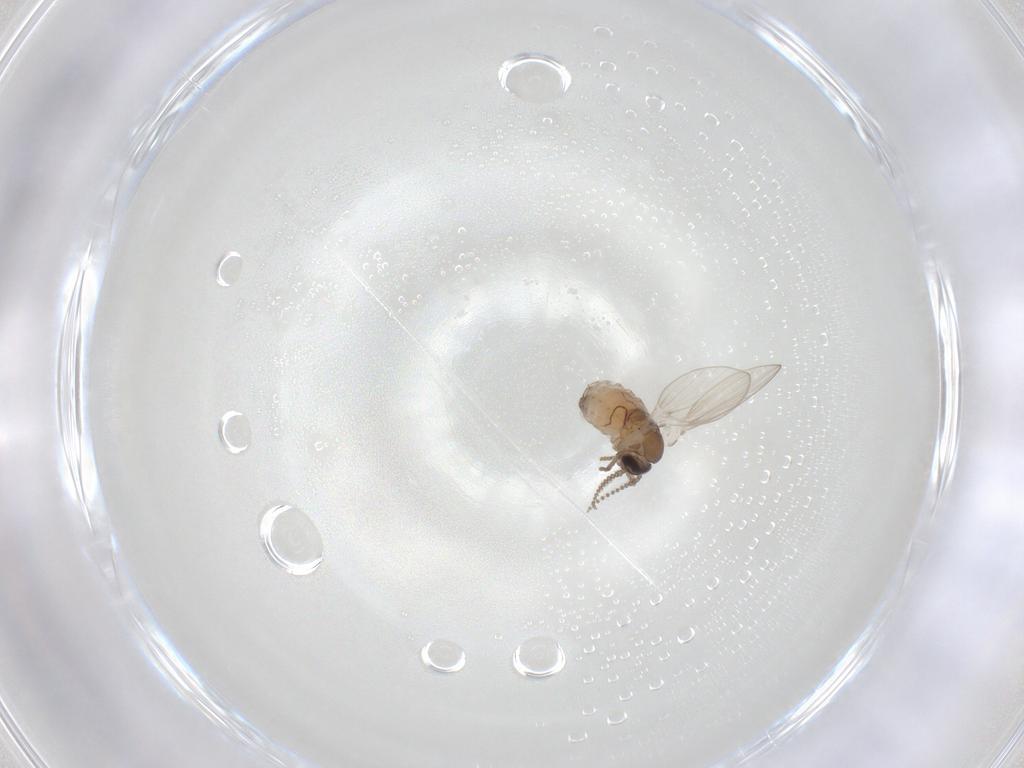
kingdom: Animalia
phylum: Arthropoda
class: Insecta
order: Diptera
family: Psychodidae
